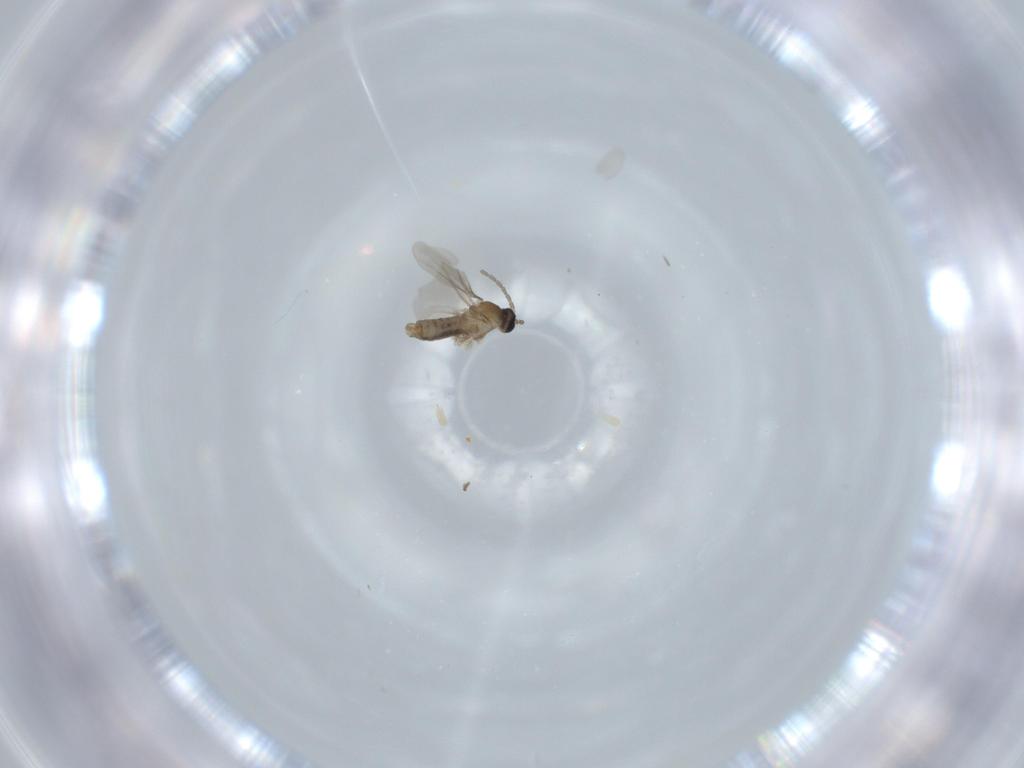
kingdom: Animalia
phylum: Arthropoda
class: Insecta
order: Diptera
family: Cecidomyiidae
